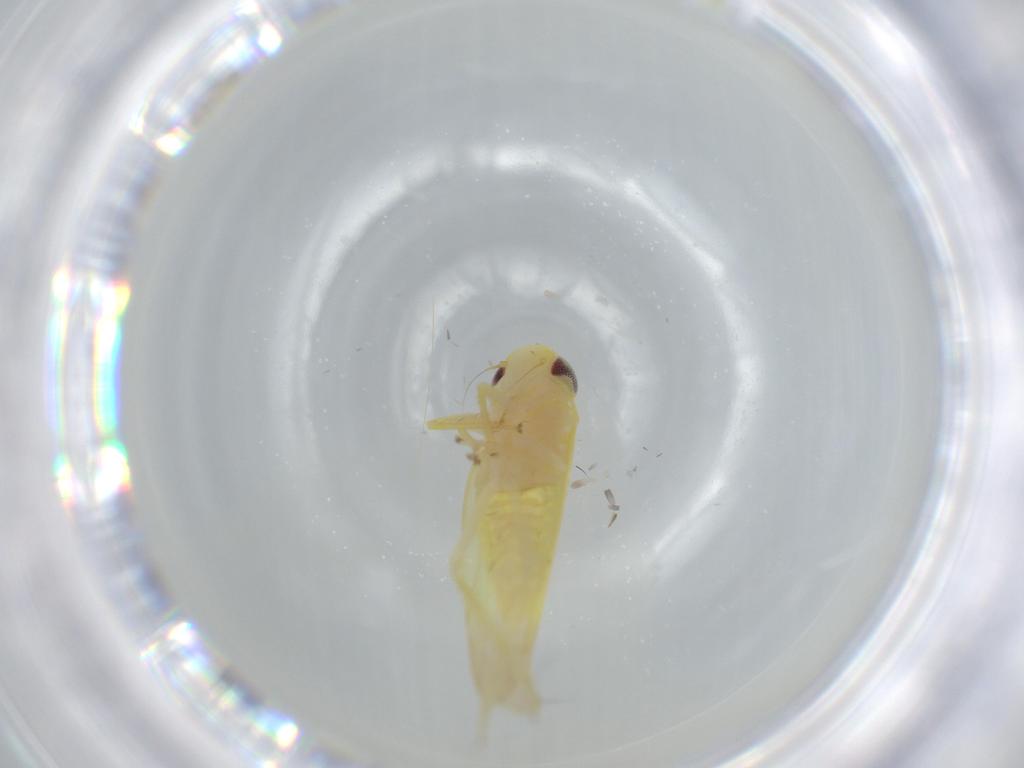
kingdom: Animalia
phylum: Arthropoda
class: Insecta
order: Hemiptera
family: Cicadellidae
